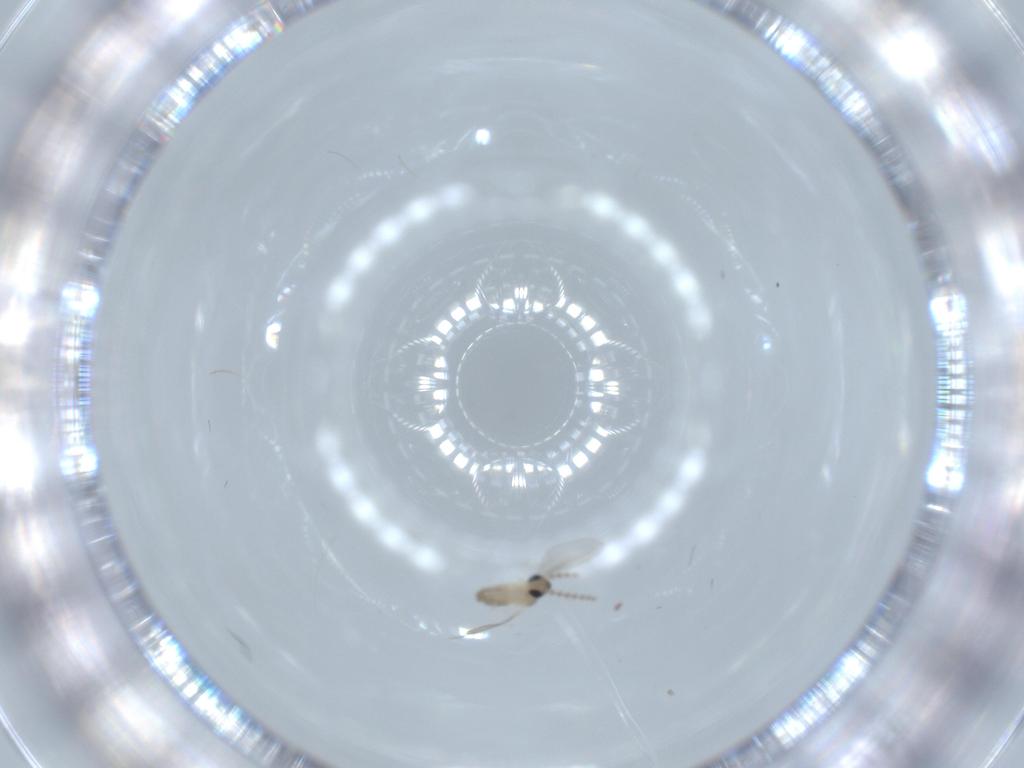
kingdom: Animalia
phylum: Arthropoda
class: Insecta
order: Diptera
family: Cecidomyiidae
